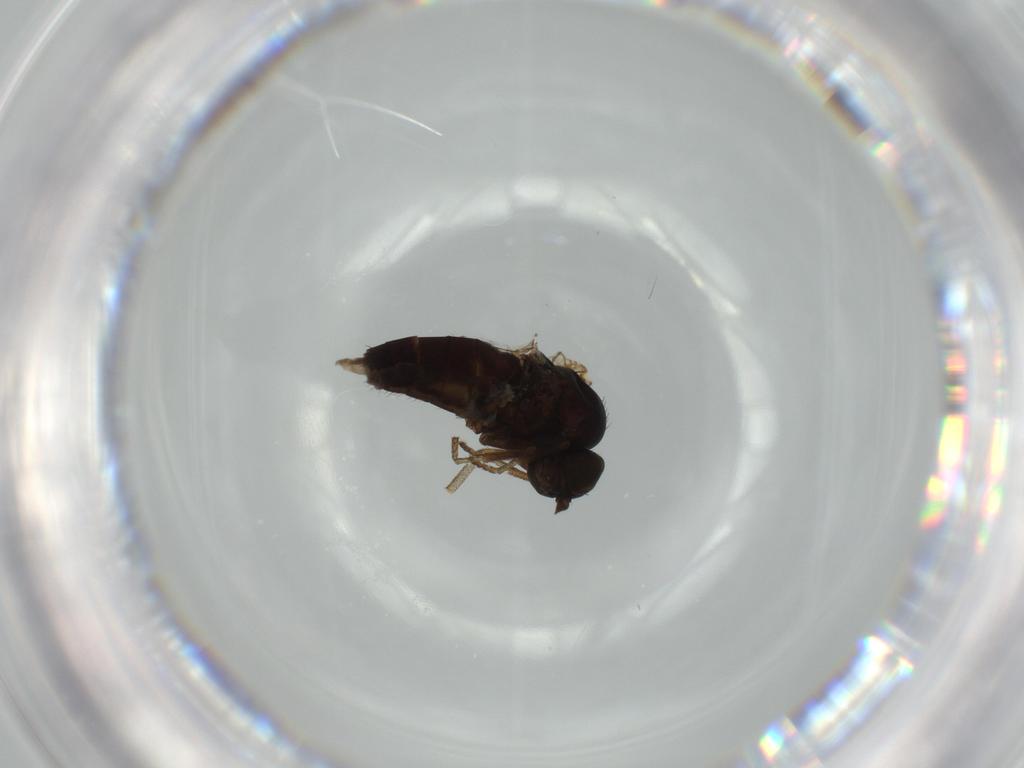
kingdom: Animalia
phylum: Arthropoda
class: Insecta
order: Diptera
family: Platypezidae
